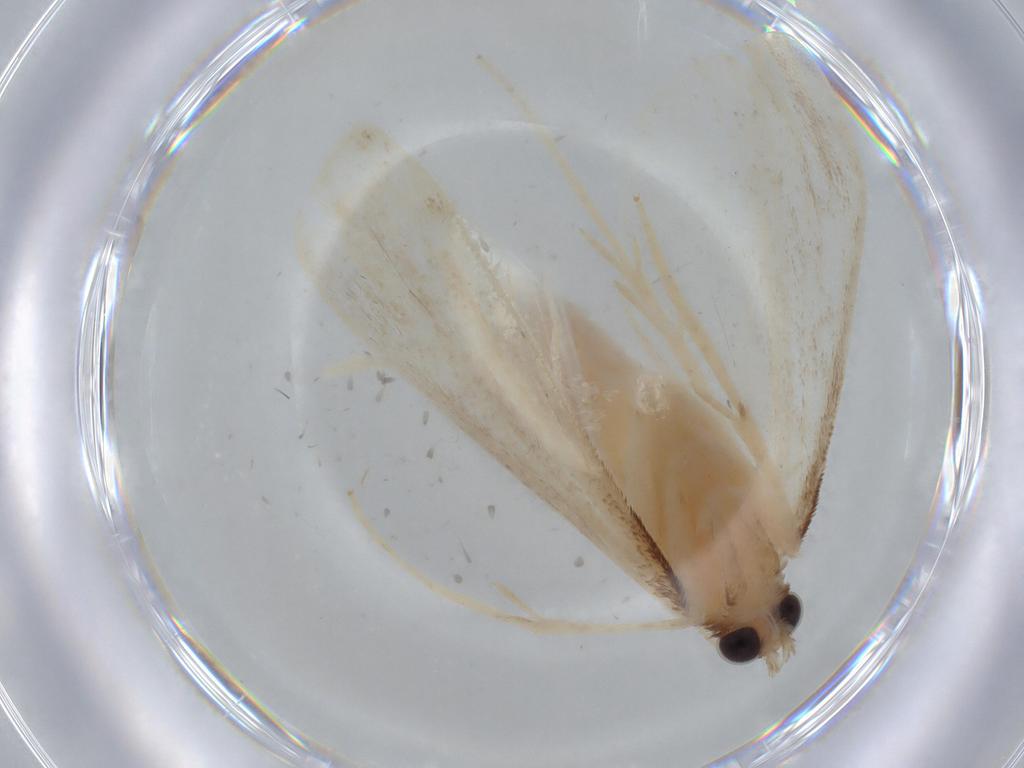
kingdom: Animalia
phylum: Arthropoda
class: Insecta
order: Lepidoptera
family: Crambidae
